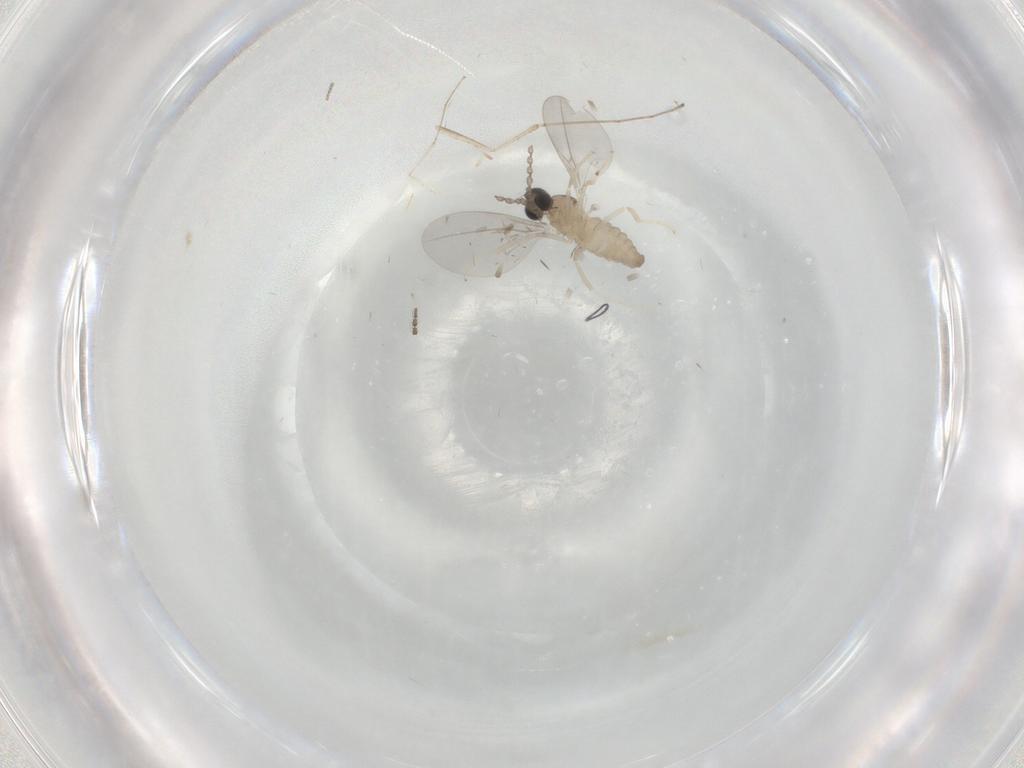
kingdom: Animalia
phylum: Arthropoda
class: Insecta
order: Diptera
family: Cecidomyiidae
